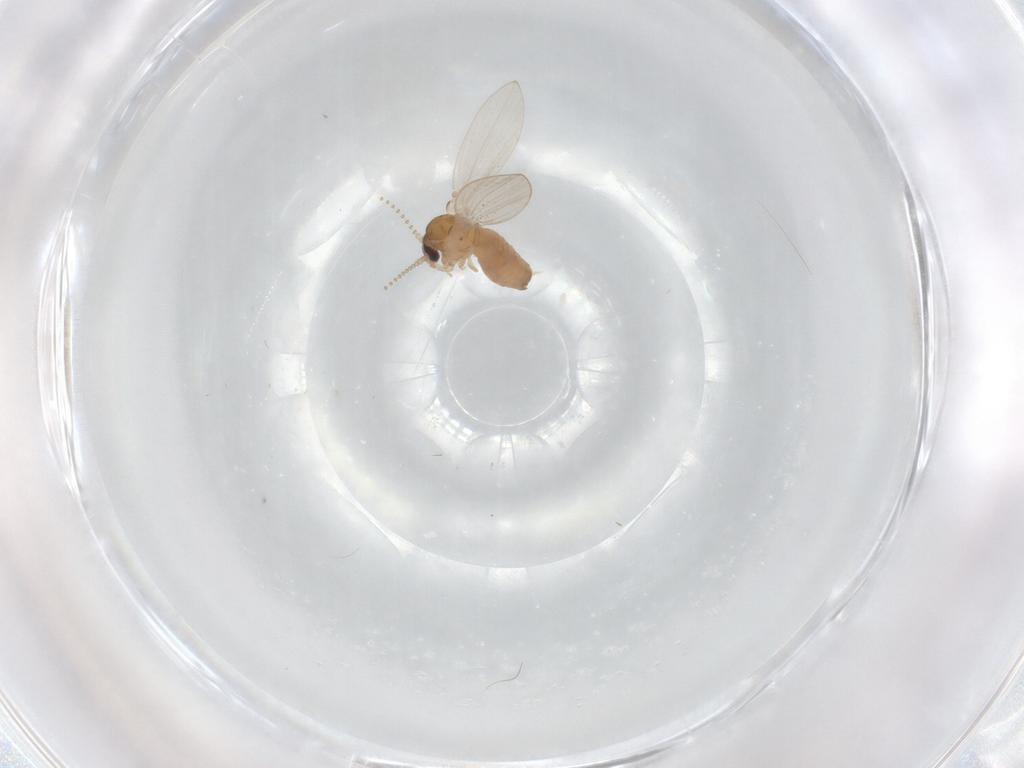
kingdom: Animalia
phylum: Arthropoda
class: Insecta
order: Diptera
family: Psychodidae
